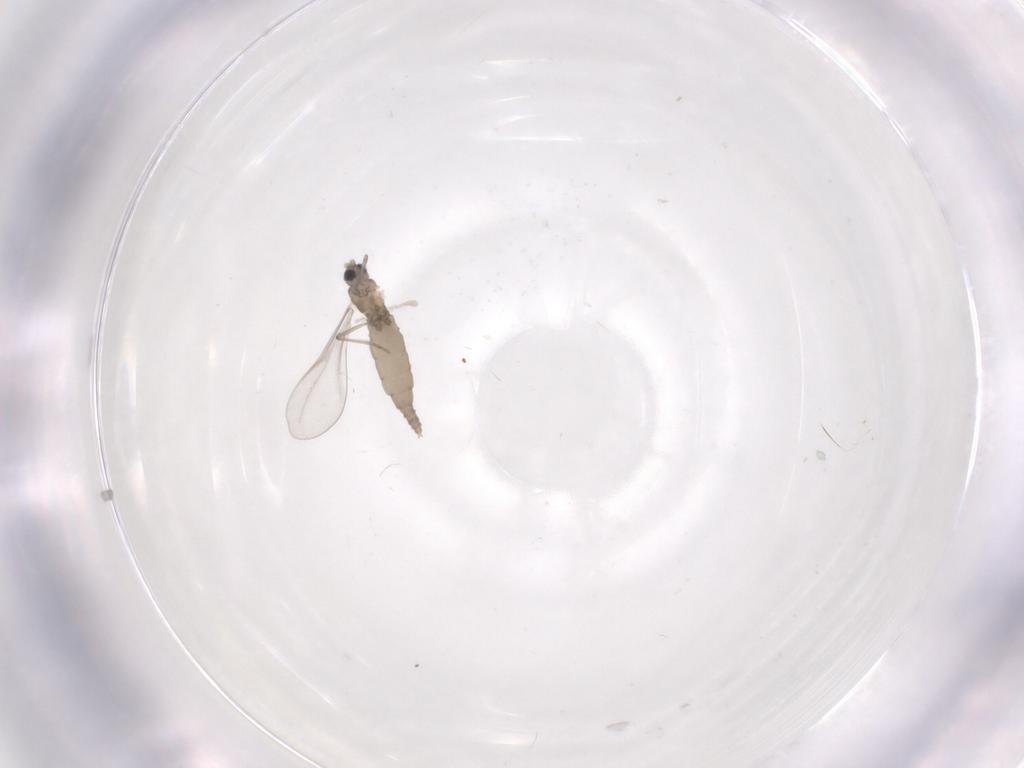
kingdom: Animalia
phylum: Arthropoda
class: Insecta
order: Diptera
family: Cecidomyiidae
